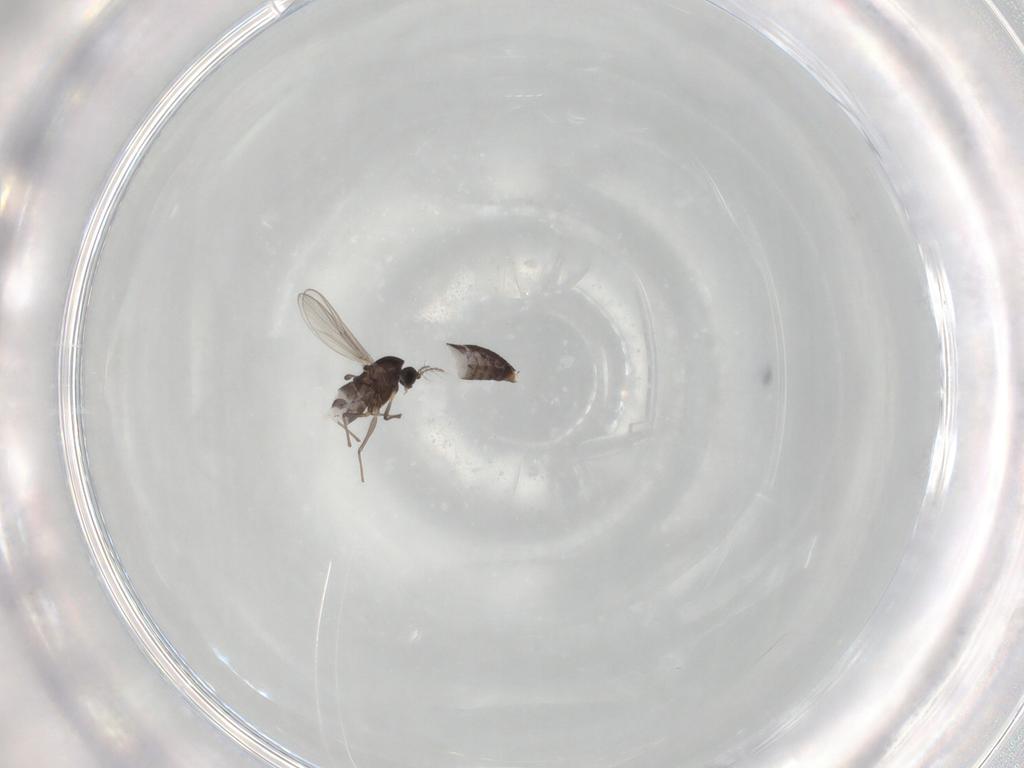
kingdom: Animalia
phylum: Arthropoda
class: Insecta
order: Diptera
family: Chironomidae
